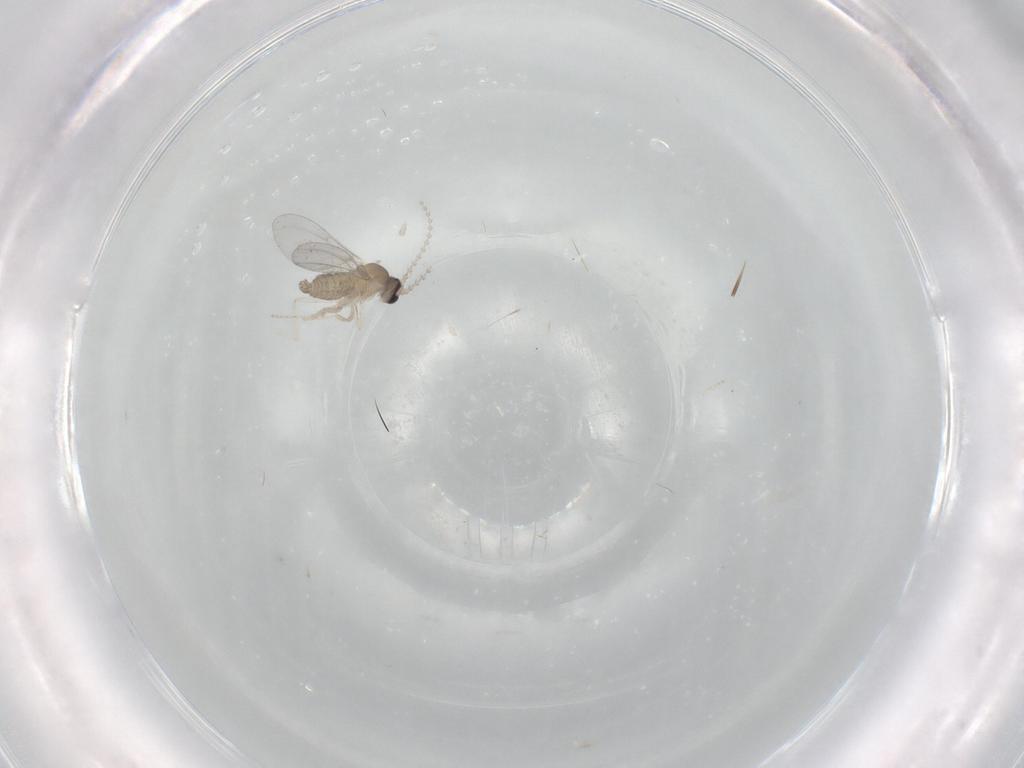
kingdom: Animalia
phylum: Arthropoda
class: Insecta
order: Diptera
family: Cecidomyiidae
